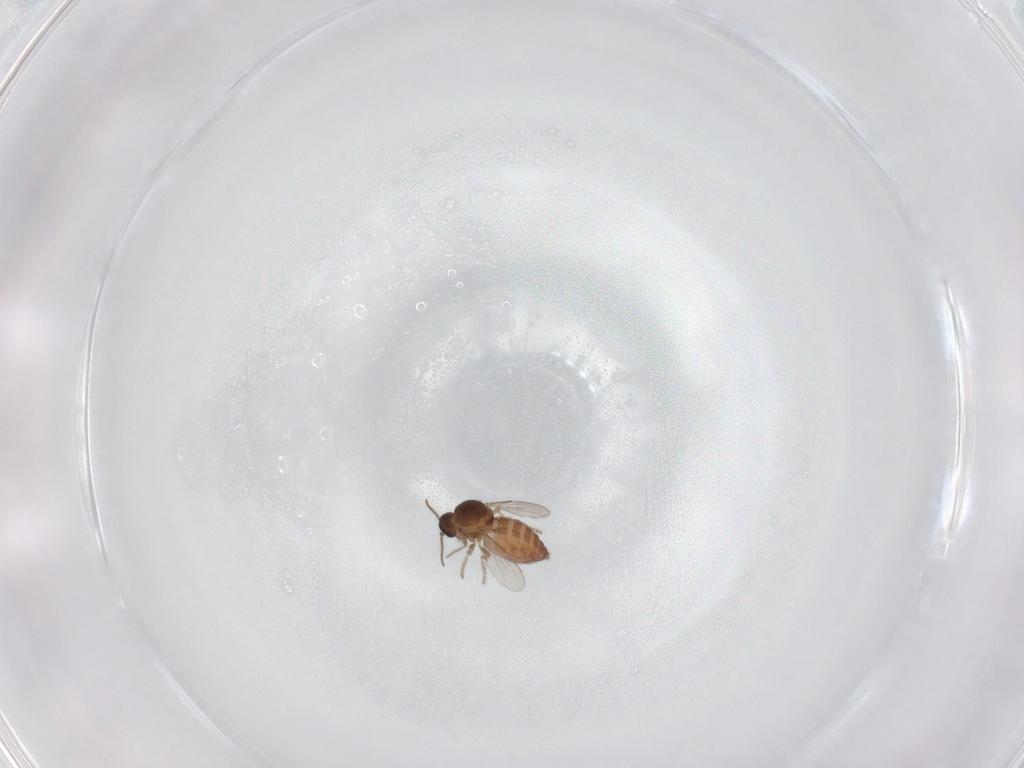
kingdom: Animalia
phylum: Arthropoda
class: Insecta
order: Diptera
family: Ceratopogonidae
